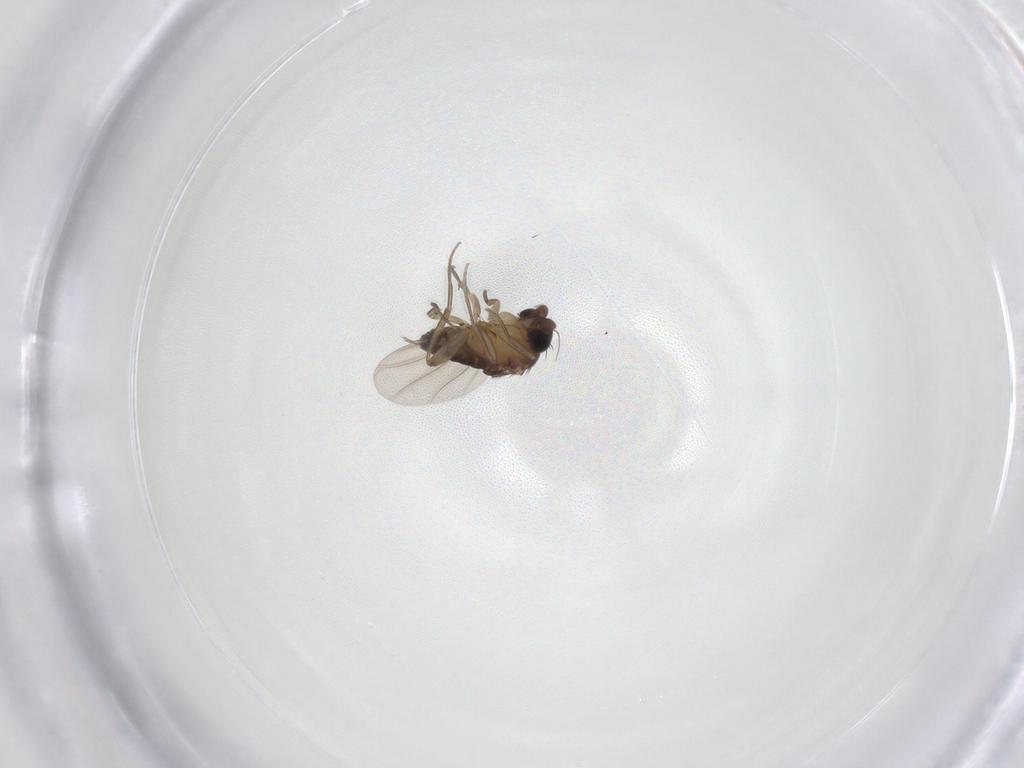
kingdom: Animalia
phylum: Arthropoda
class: Insecta
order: Diptera
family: Phoridae
